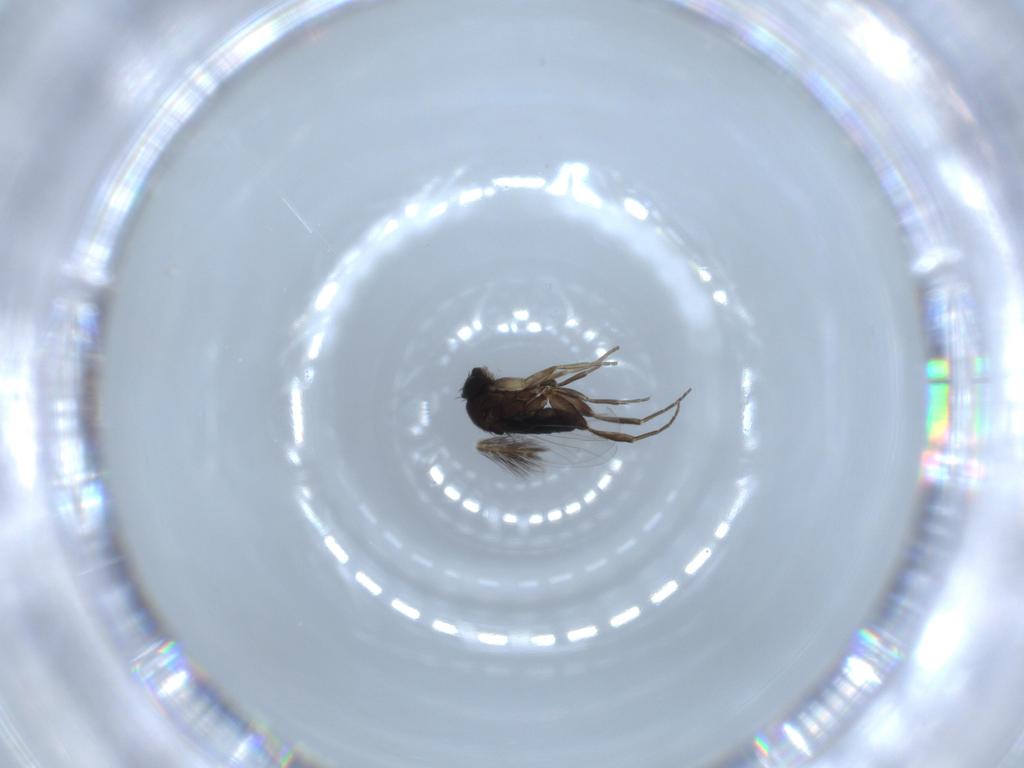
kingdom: Animalia
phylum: Arthropoda
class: Insecta
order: Diptera
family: Phoridae
